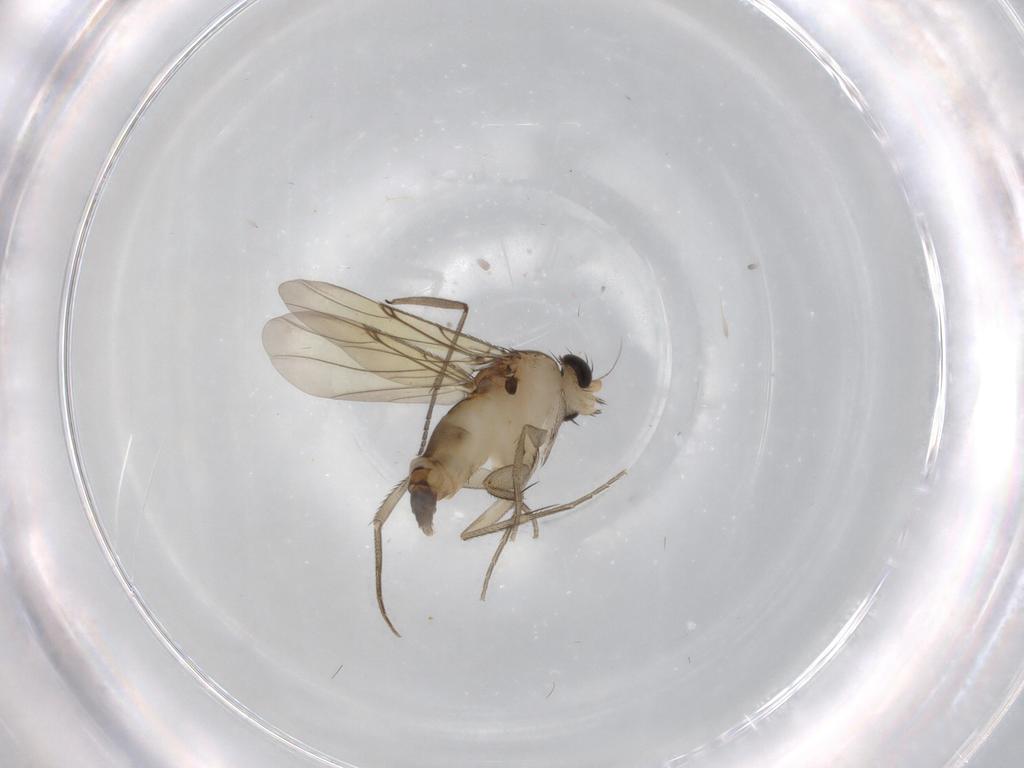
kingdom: Animalia
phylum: Arthropoda
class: Insecta
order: Diptera
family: Phoridae
